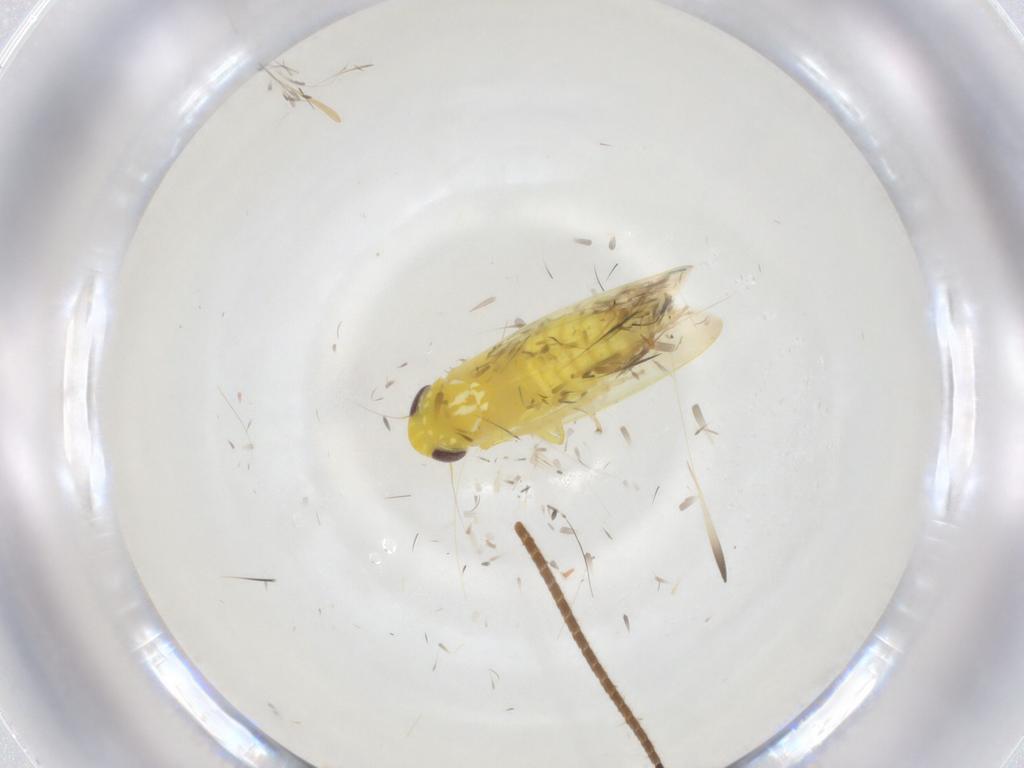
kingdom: Animalia
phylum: Arthropoda
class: Insecta
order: Hemiptera
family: Cicadellidae
